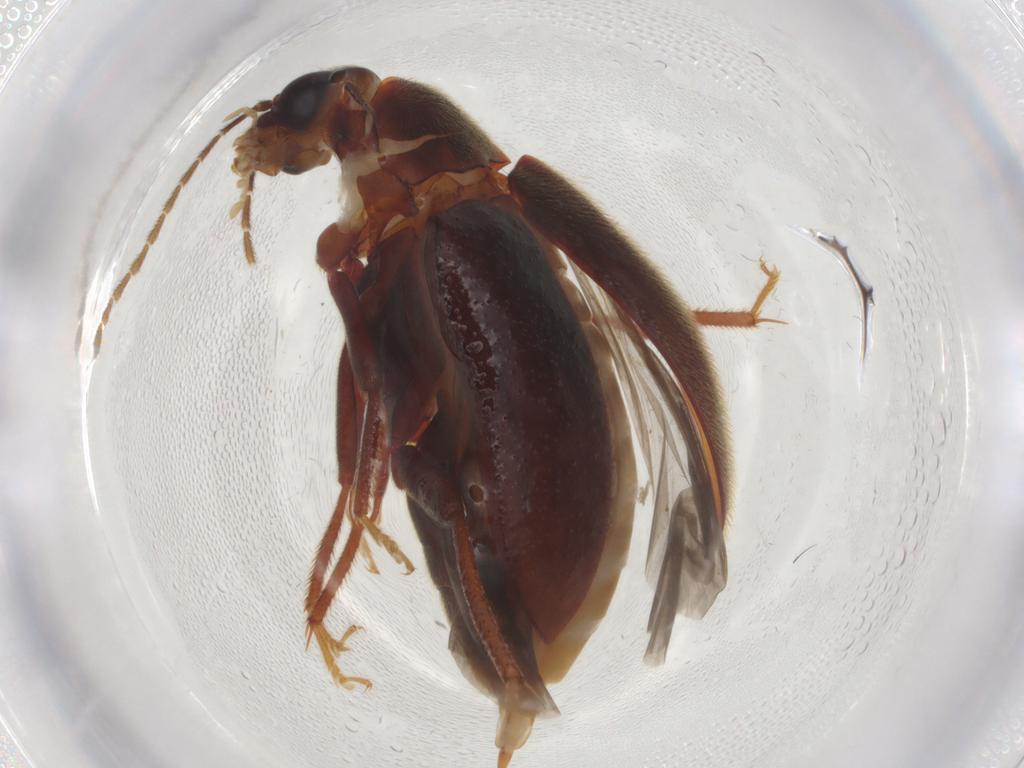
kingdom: Animalia
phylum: Arthropoda
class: Insecta
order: Coleoptera
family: Ptilodactylidae
